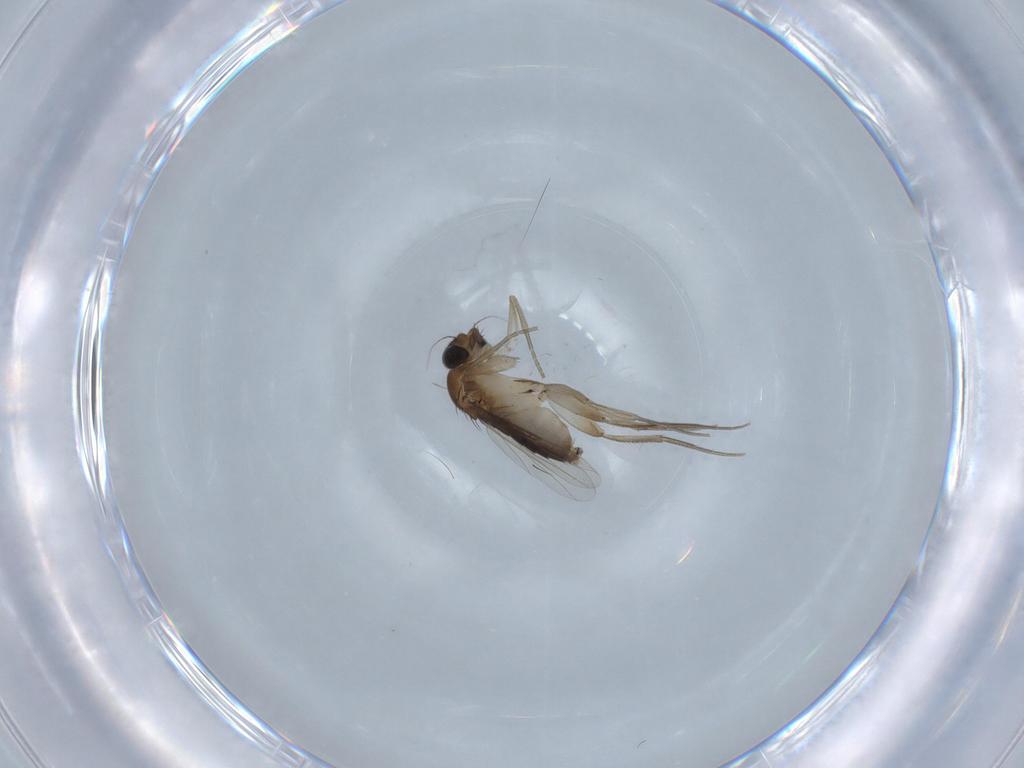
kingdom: Animalia
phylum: Arthropoda
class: Insecta
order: Diptera
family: Phoridae
